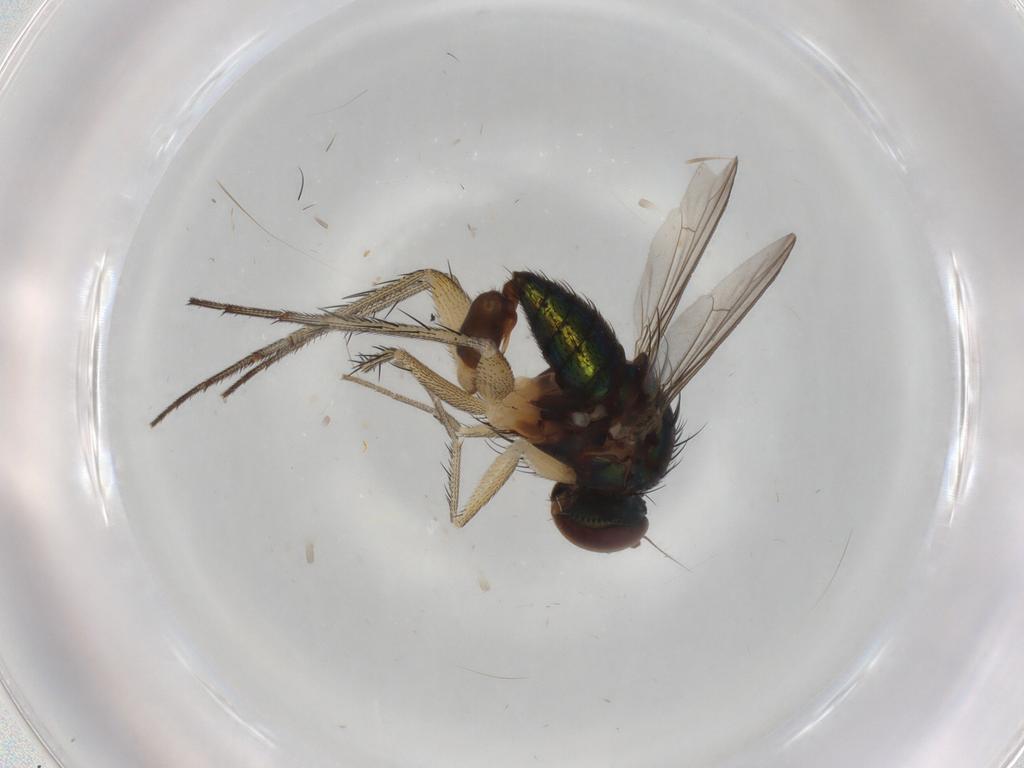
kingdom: Animalia
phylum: Arthropoda
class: Insecta
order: Diptera
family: Dolichopodidae
